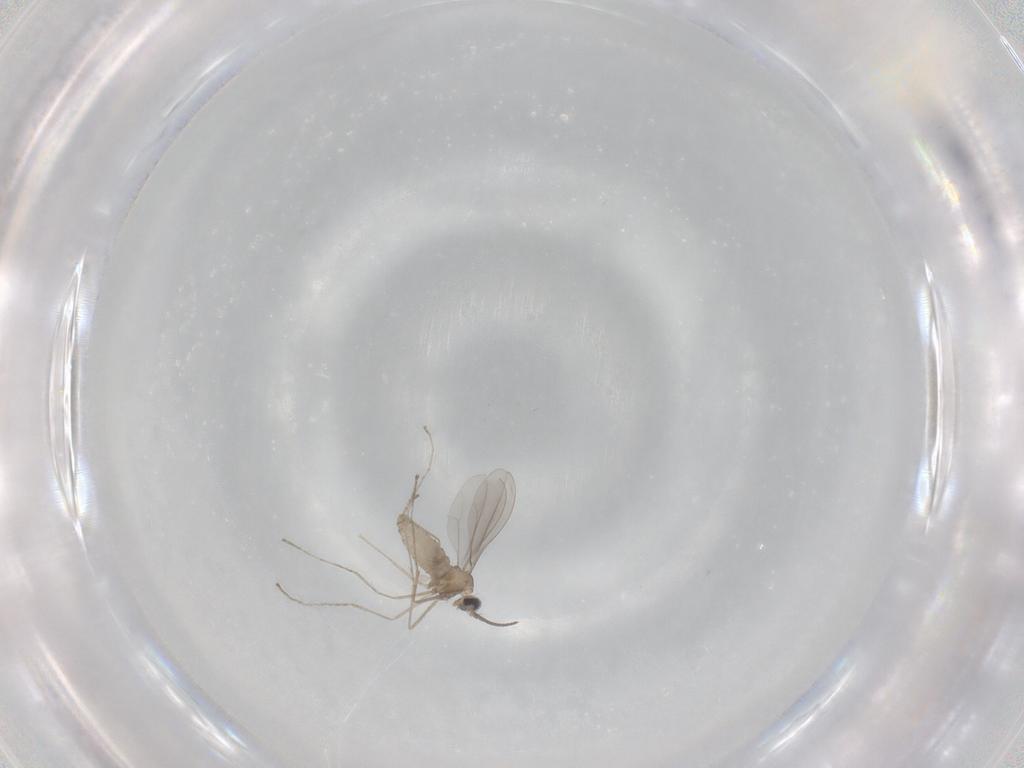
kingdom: Animalia
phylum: Arthropoda
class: Insecta
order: Diptera
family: Cecidomyiidae
